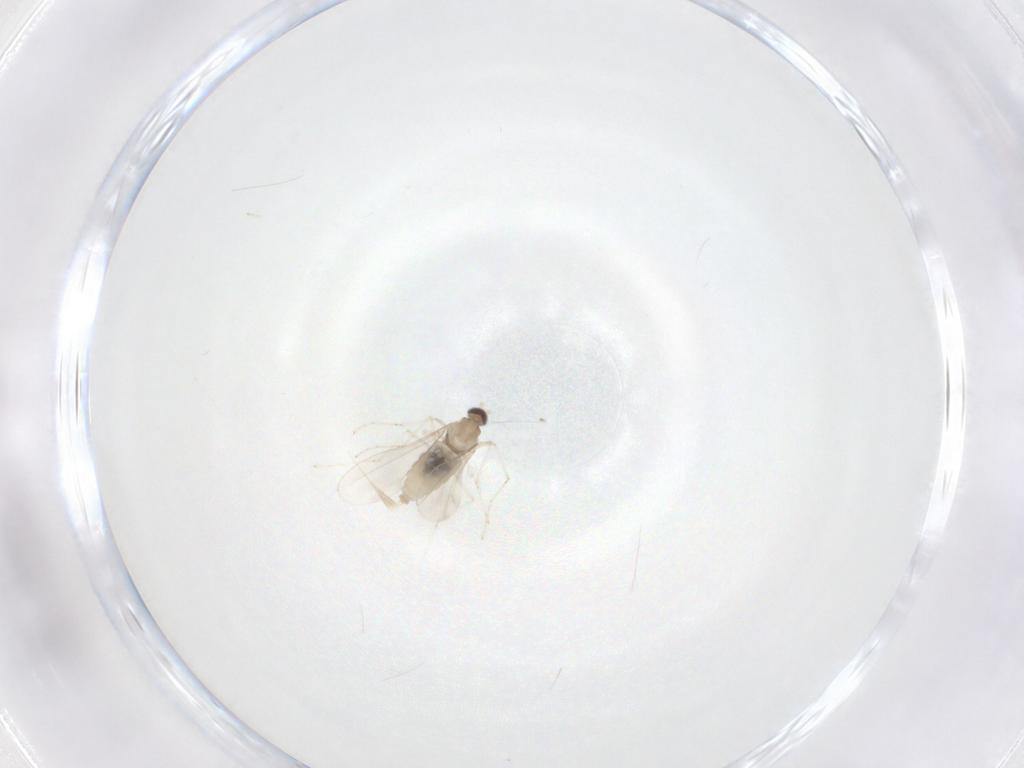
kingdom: Animalia
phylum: Arthropoda
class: Insecta
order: Diptera
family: Cecidomyiidae
